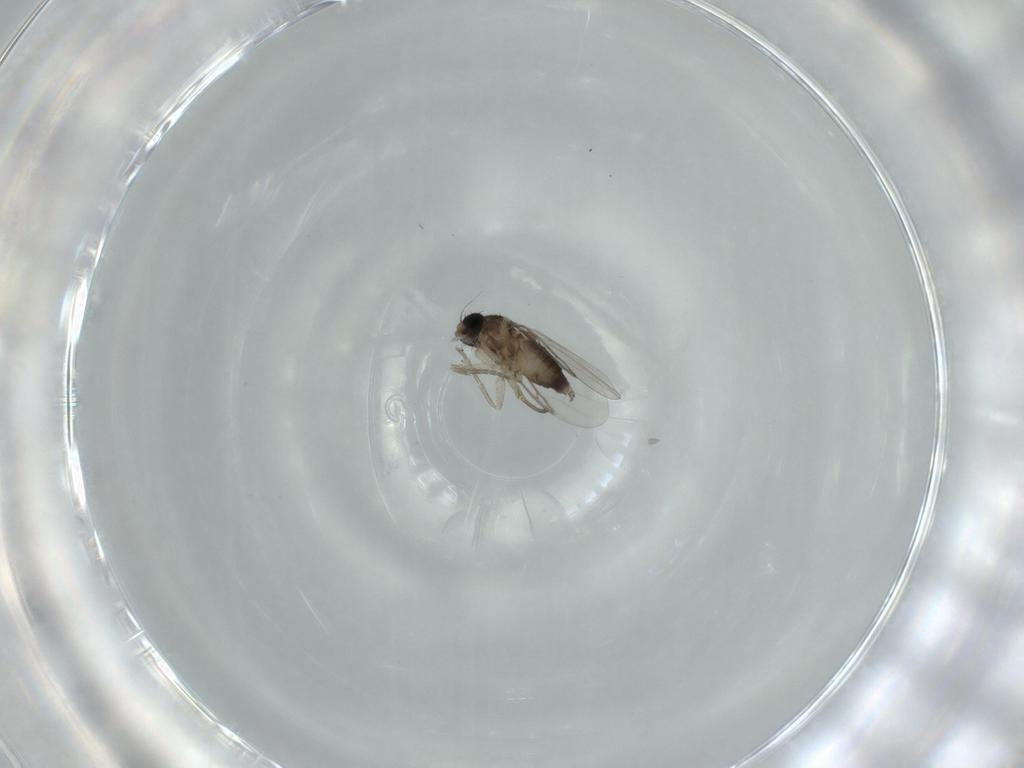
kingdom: Animalia
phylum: Arthropoda
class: Insecta
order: Diptera
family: Phoridae
